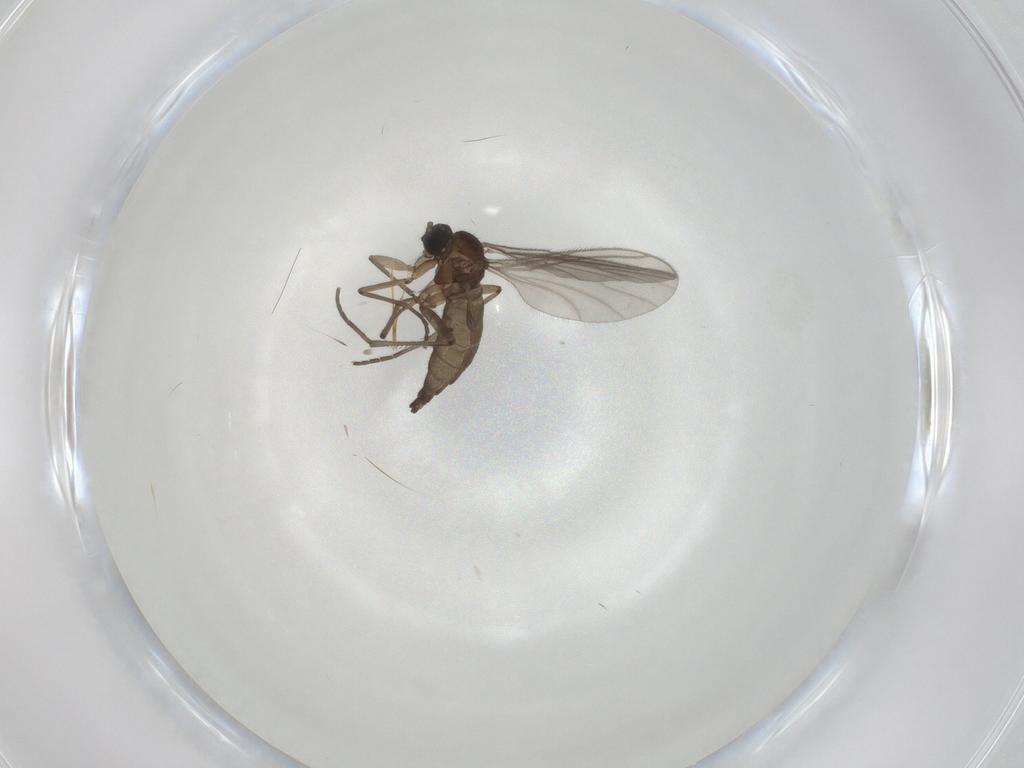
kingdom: Animalia
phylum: Arthropoda
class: Insecta
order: Diptera
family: Sciaridae
